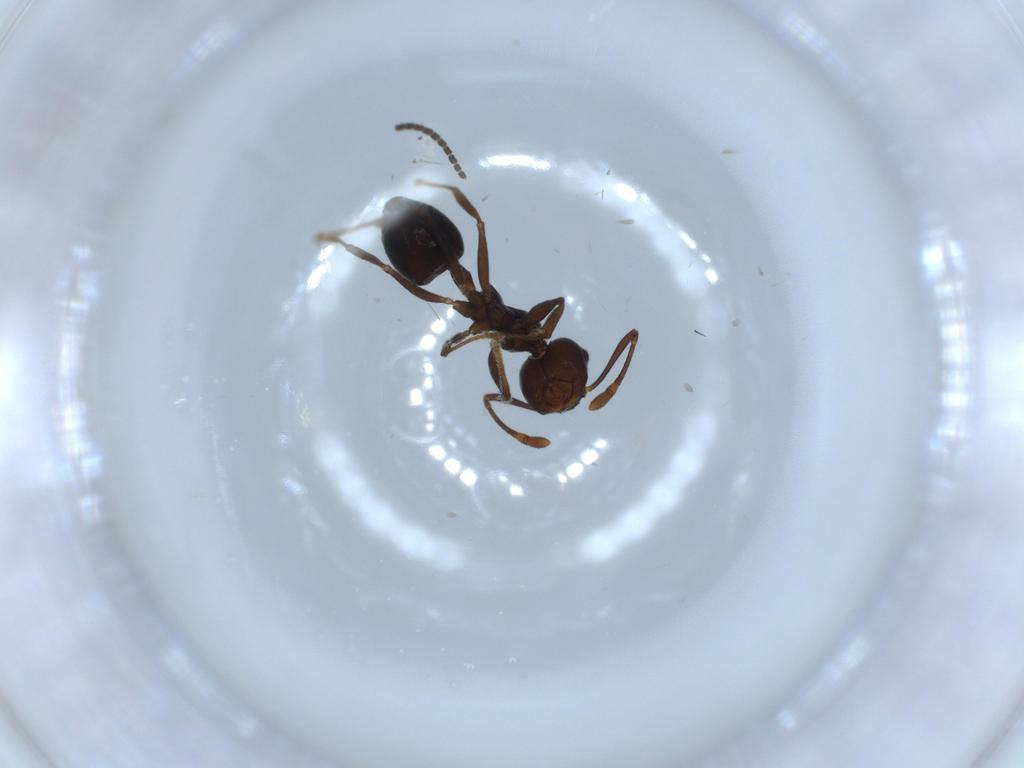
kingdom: Animalia
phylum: Arthropoda
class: Insecta
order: Hymenoptera
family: Formicidae
